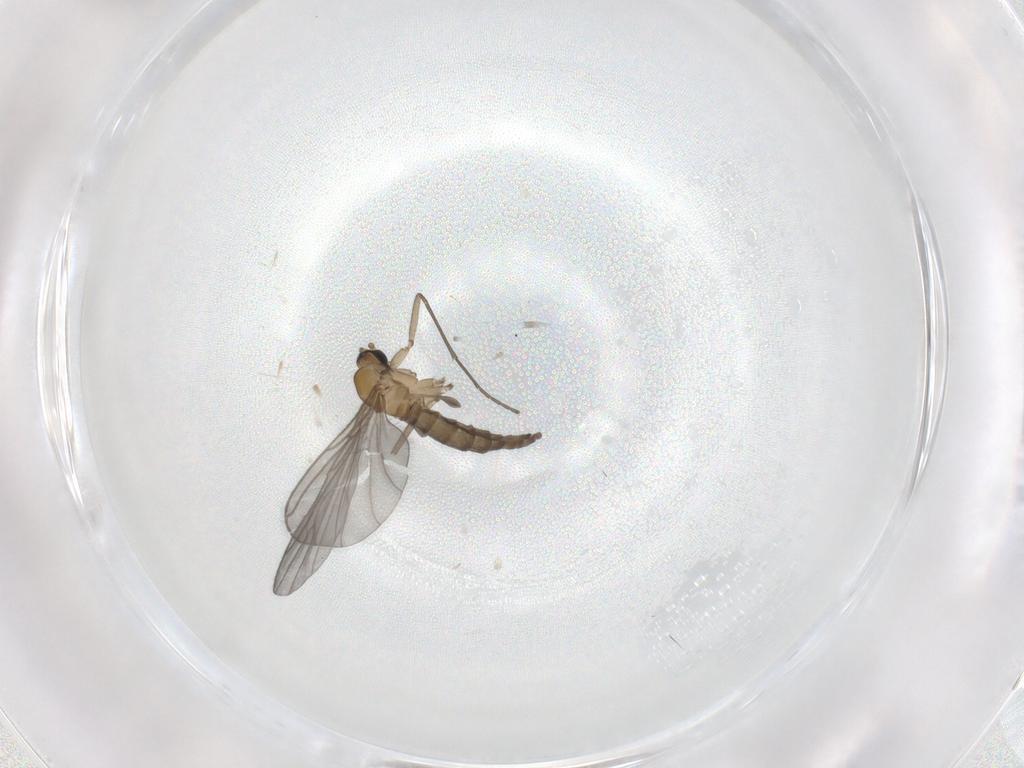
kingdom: Animalia
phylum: Arthropoda
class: Insecta
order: Diptera
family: Sciaridae
